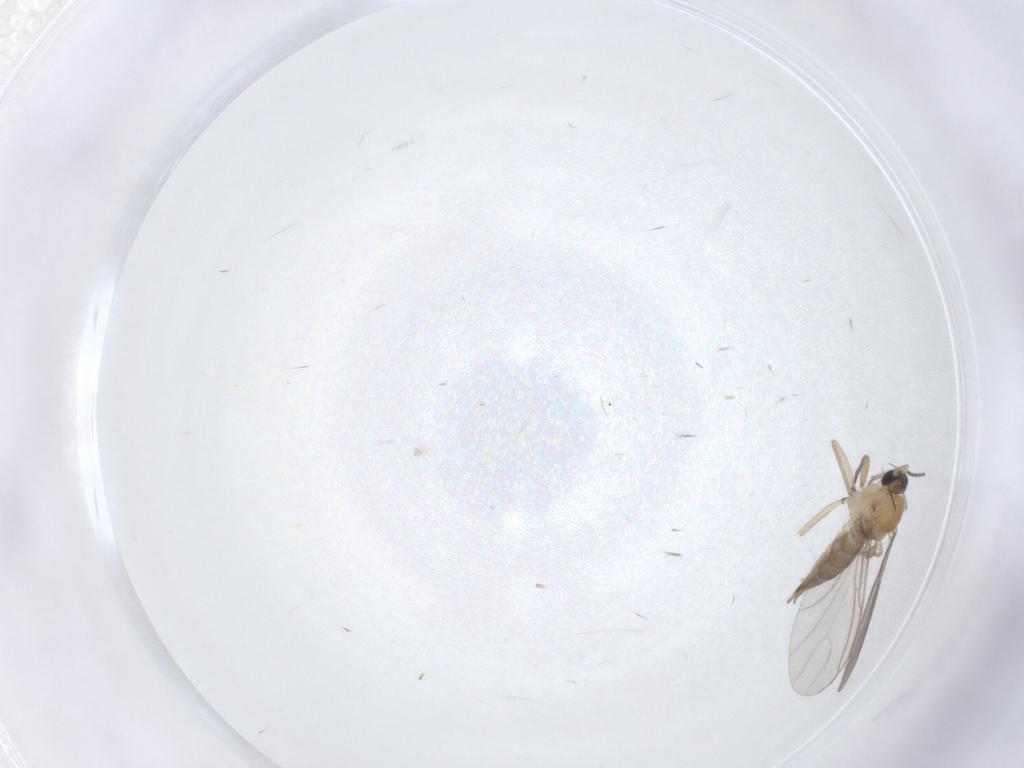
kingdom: Animalia
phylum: Arthropoda
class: Insecta
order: Diptera
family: Sciaridae
